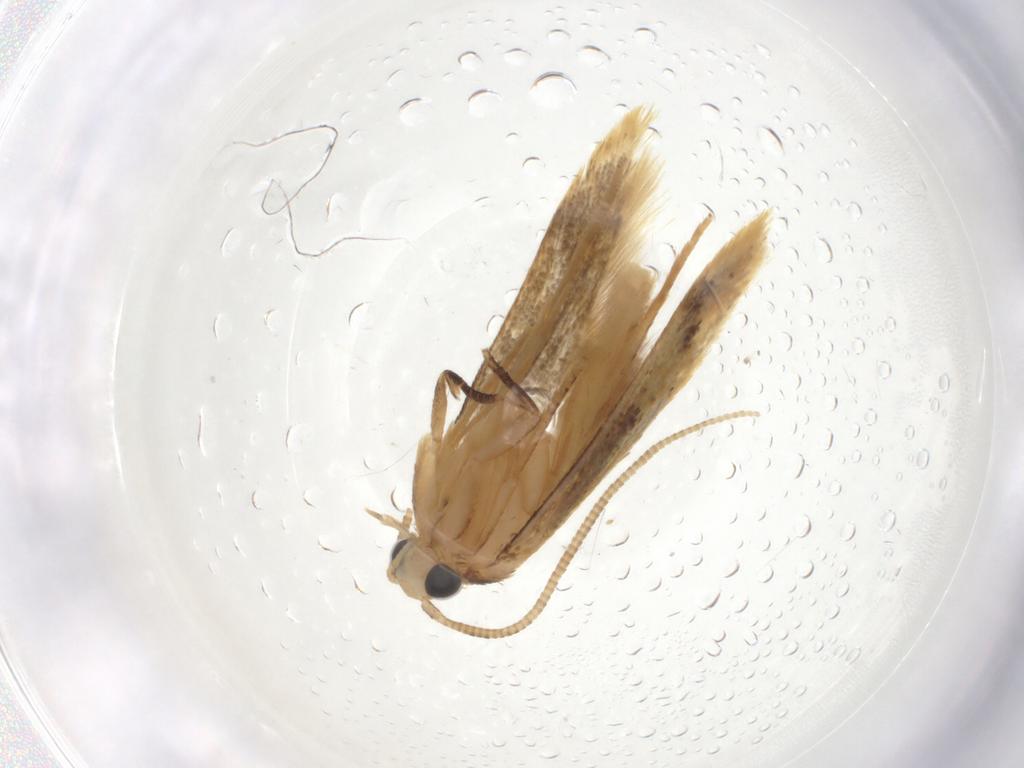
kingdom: Animalia
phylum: Arthropoda
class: Insecta
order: Lepidoptera
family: Tineidae
